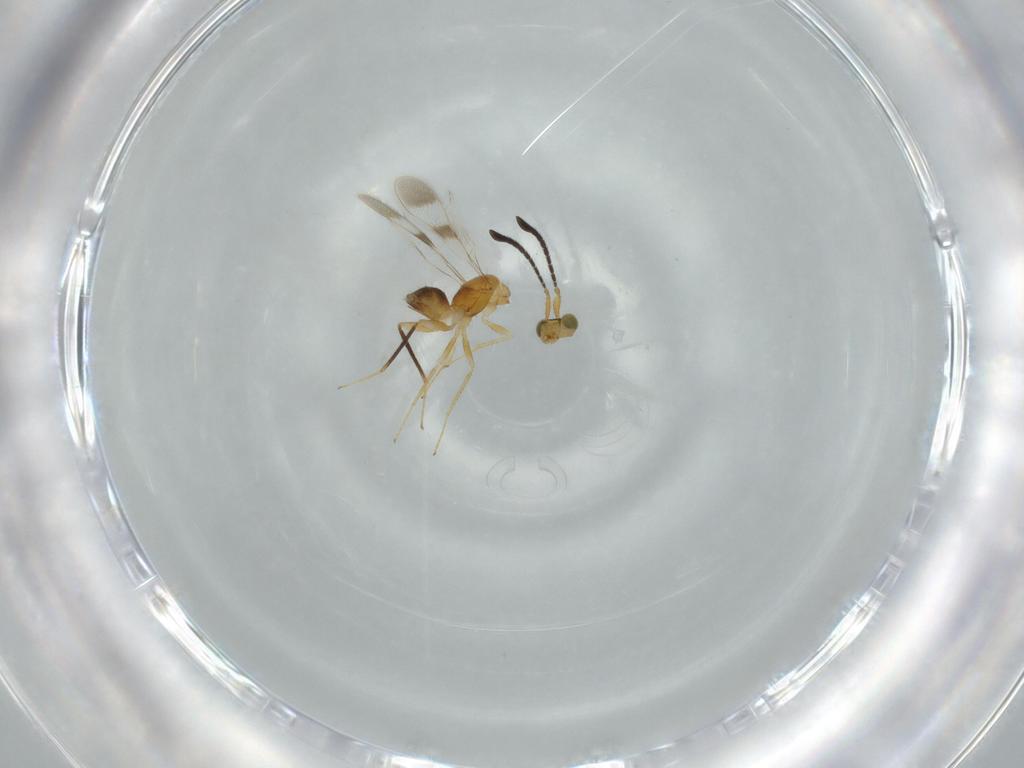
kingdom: Animalia
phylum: Arthropoda
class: Insecta
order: Hymenoptera
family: Mymaridae
